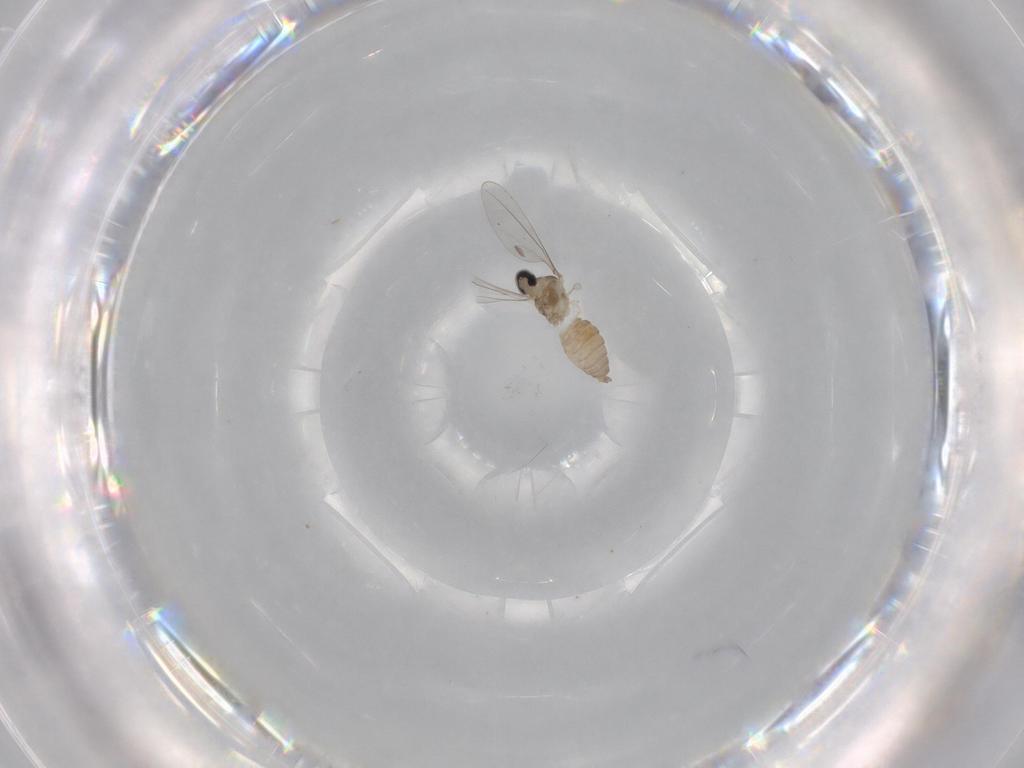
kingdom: Animalia
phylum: Arthropoda
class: Insecta
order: Diptera
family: Cecidomyiidae
